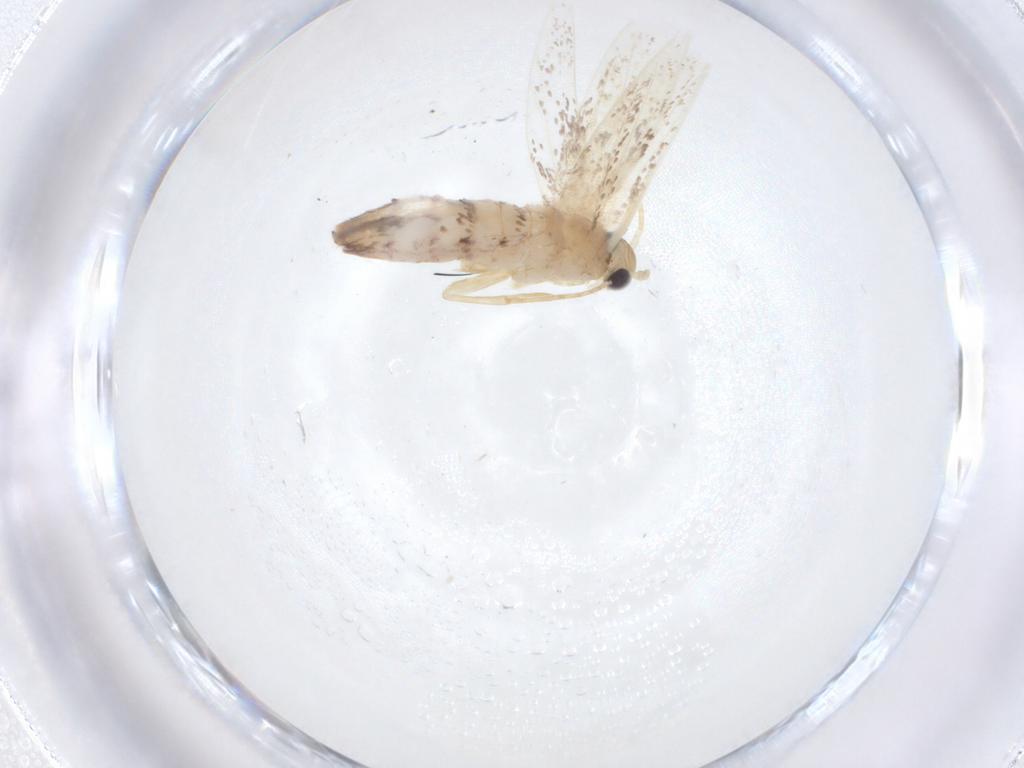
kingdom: Animalia
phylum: Arthropoda
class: Insecta
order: Lepidoptera
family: Dryadaulidae
